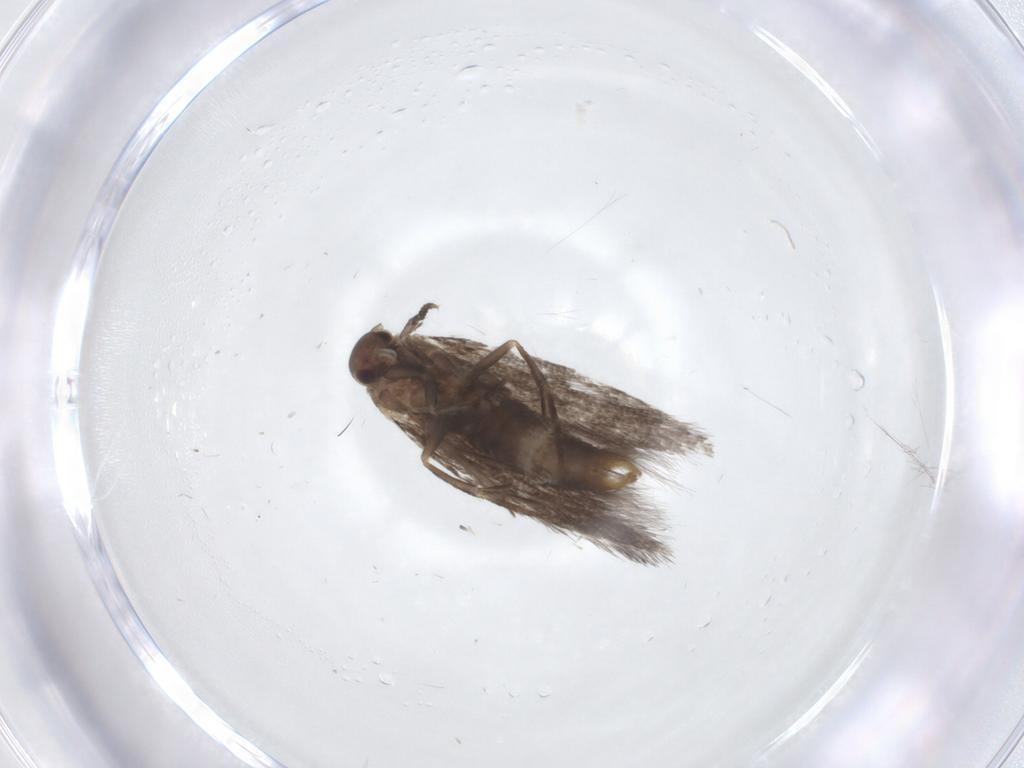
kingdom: Animalia
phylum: Arthropoda
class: Insecta
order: Lepidoptera
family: Elachistidae
